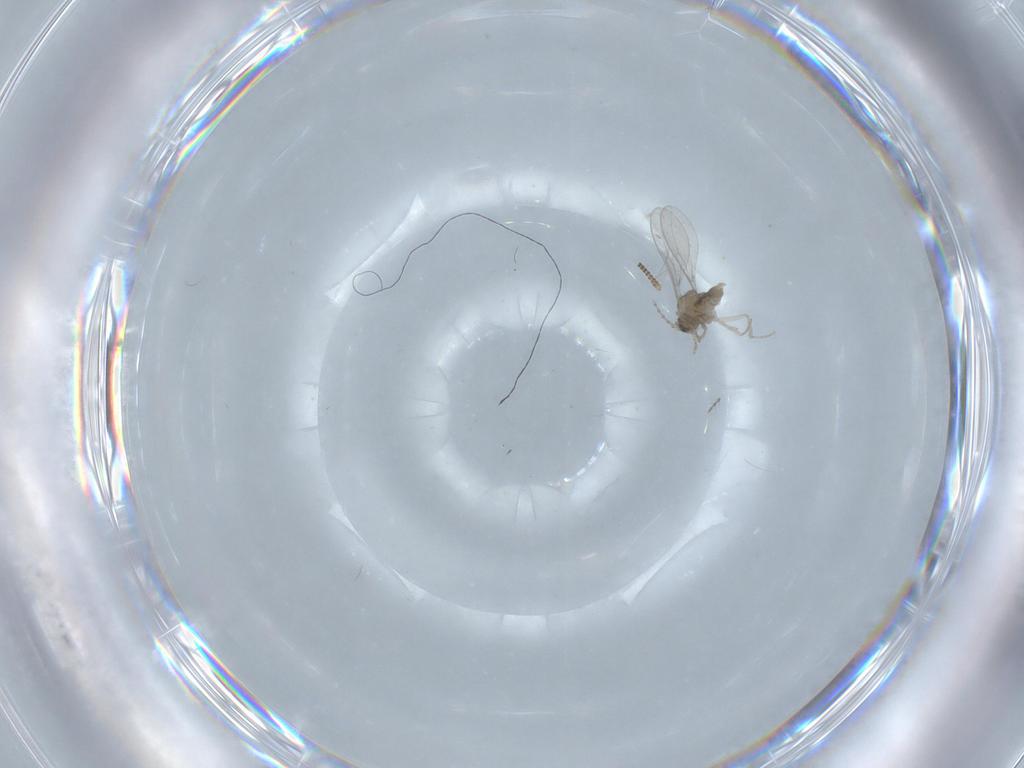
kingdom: Animalia
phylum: Arthropoda
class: Insecta
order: Diptera
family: Chironomidae
